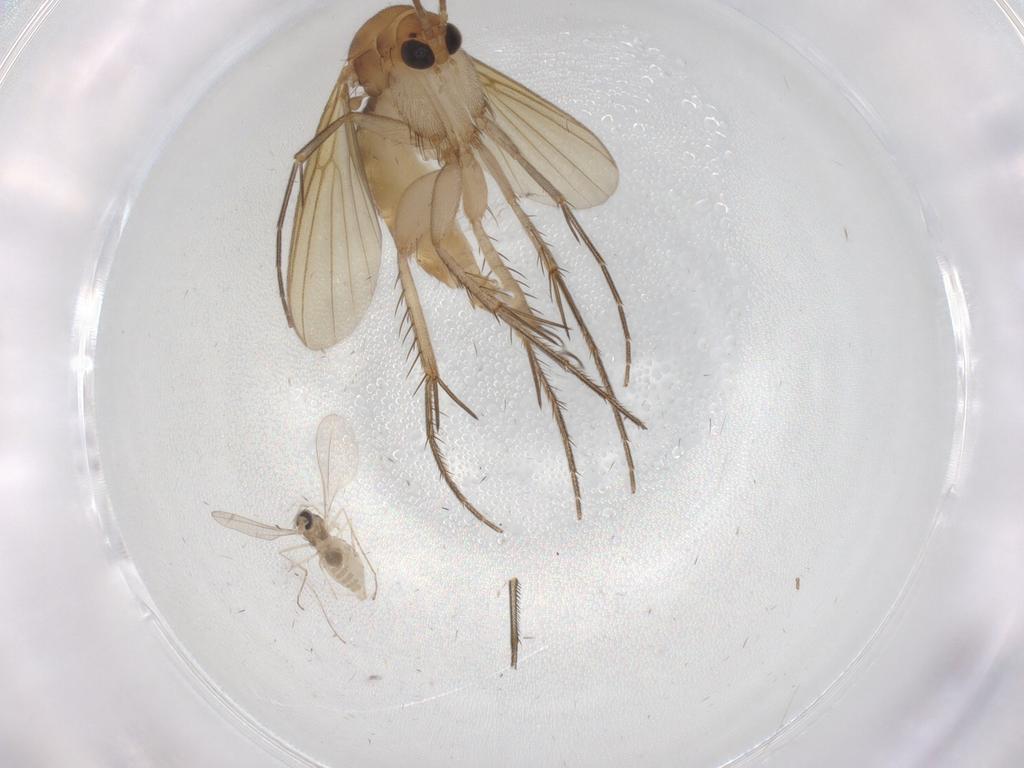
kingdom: Animalia
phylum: Arthropoda
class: Insecta
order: Diptera
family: Mycetophilidae
